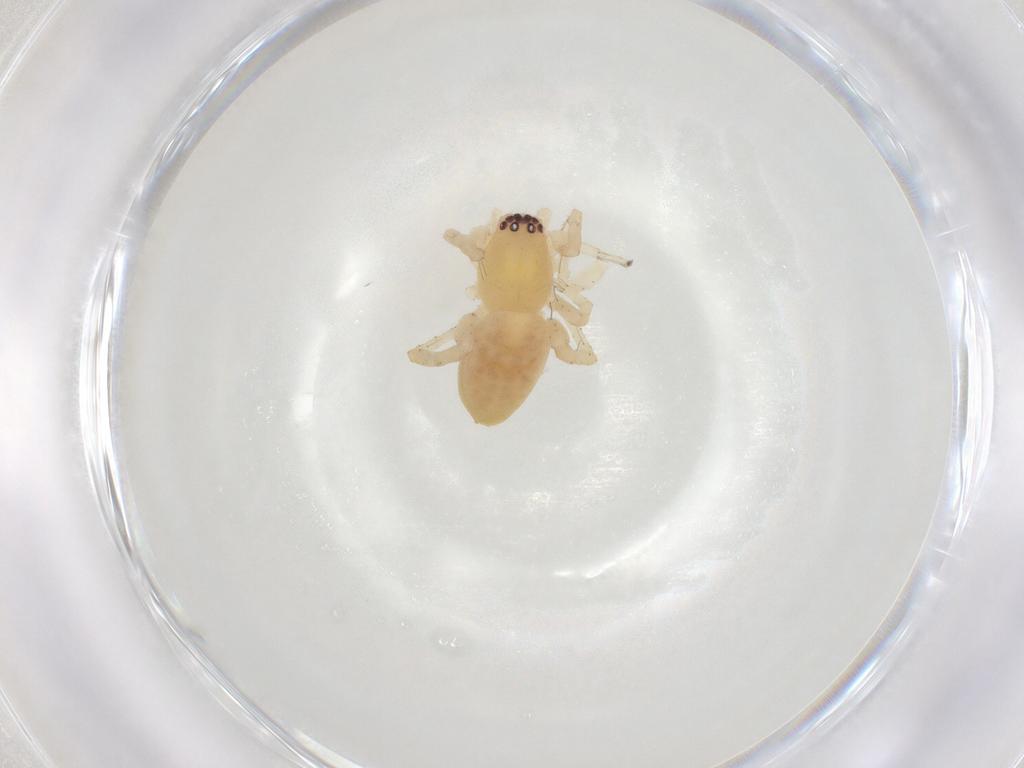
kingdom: Animalia
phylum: Arthropoda
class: Arachnida
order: Araneae
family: Clubionidae
